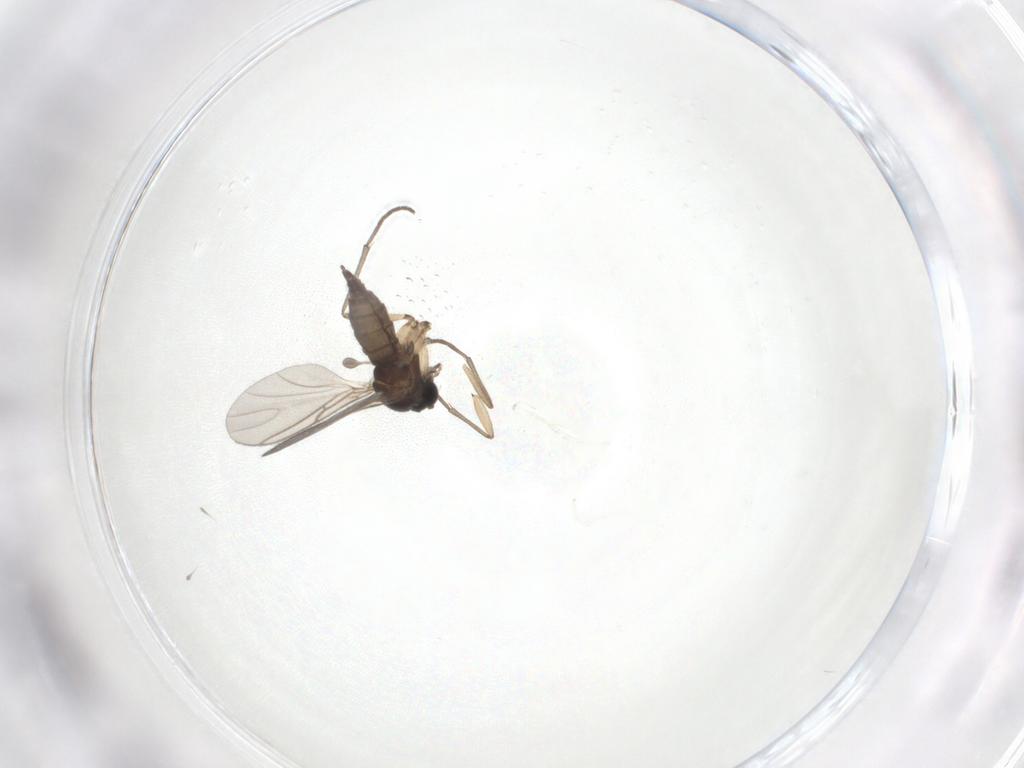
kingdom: Animalia
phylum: Arthropoda
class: Insecta
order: Diptera
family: Sciaridae
